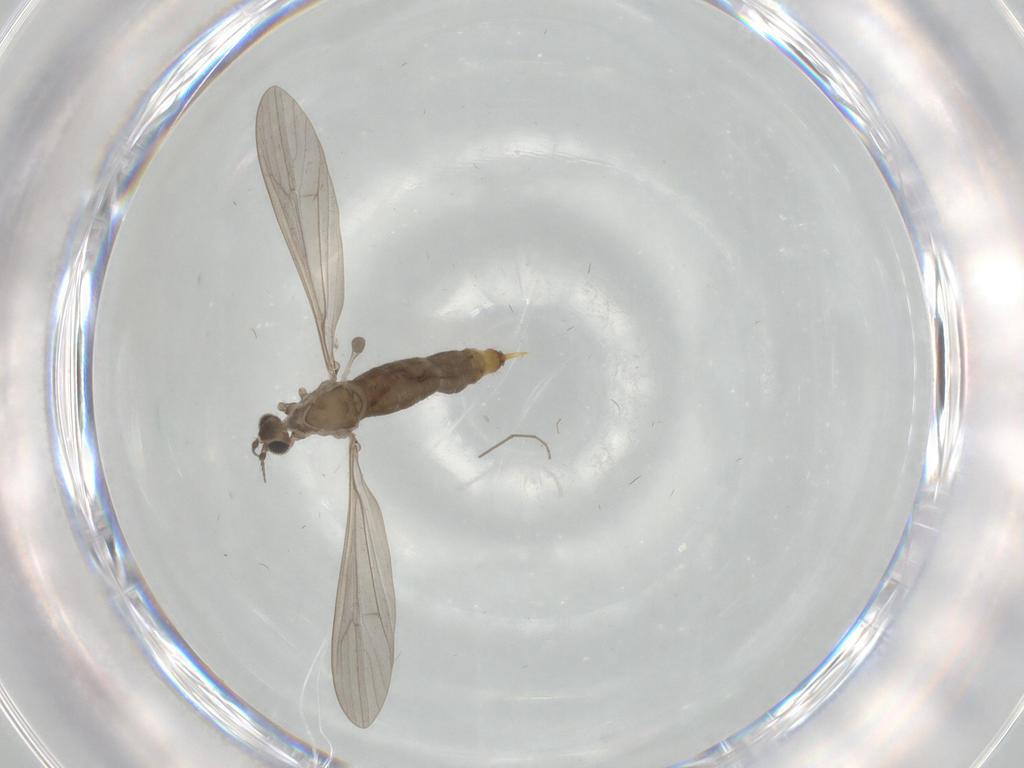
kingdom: Animalia
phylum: Arthropoda
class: Insecta
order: Diptera
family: Limoniidae
